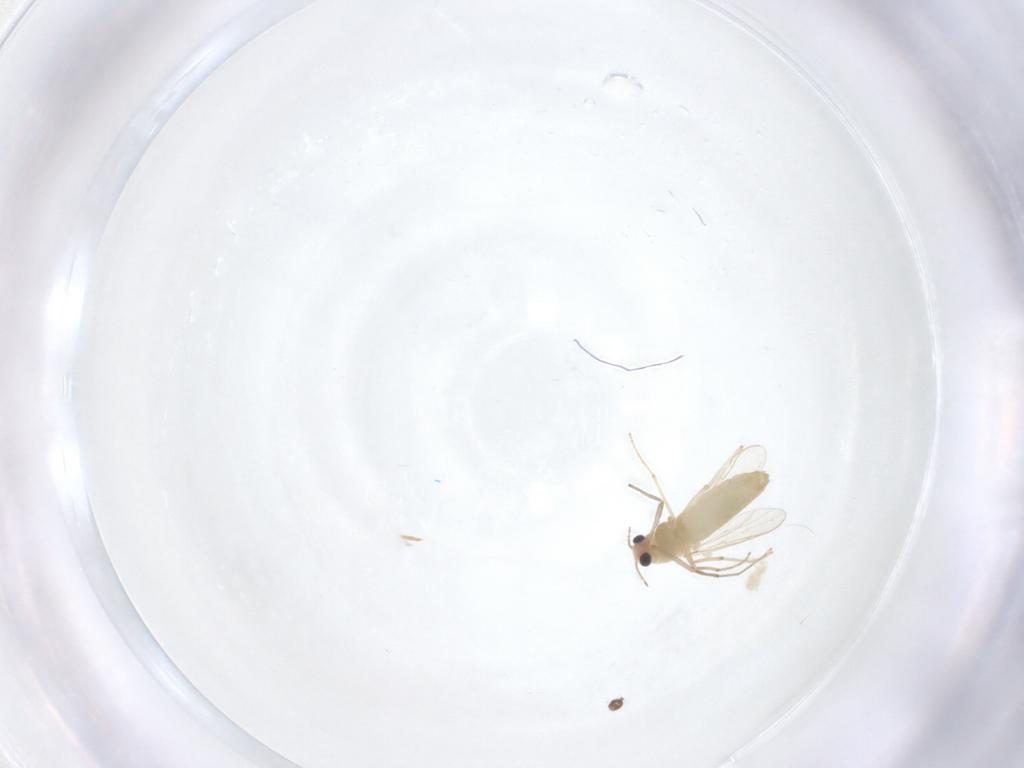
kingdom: Animalia
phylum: Arthropoda
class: Insecta
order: Diptera
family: Chironomidae
